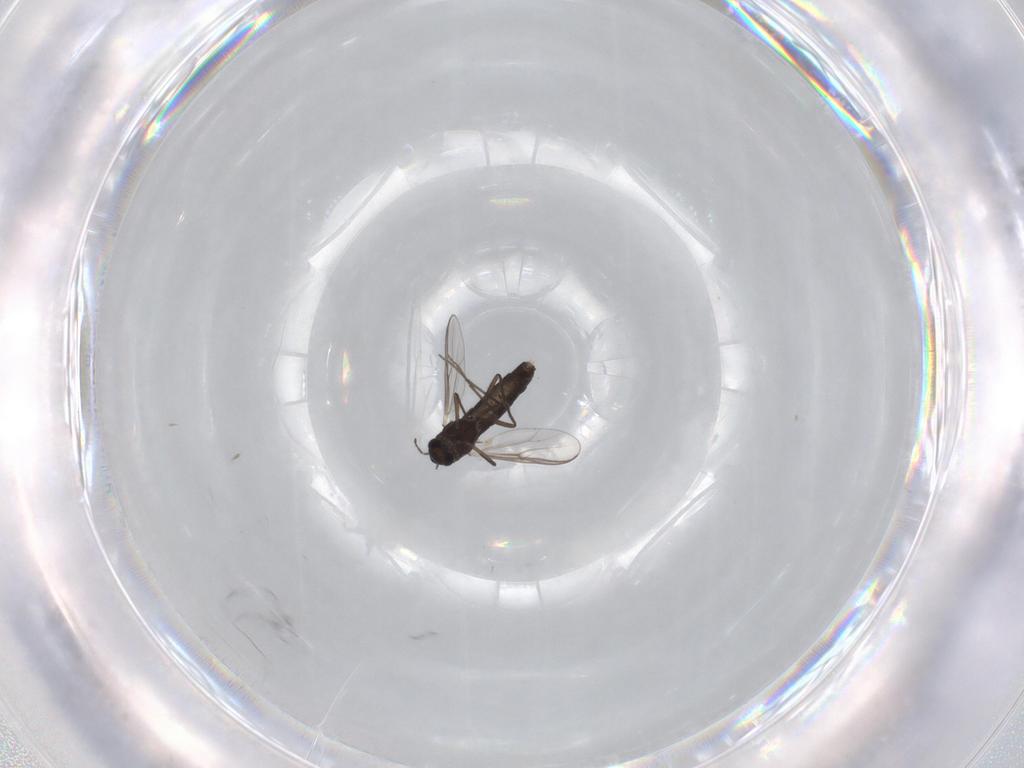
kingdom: Animalia
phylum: Arthropoda
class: Insecta
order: Diptera
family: Chironomidae
